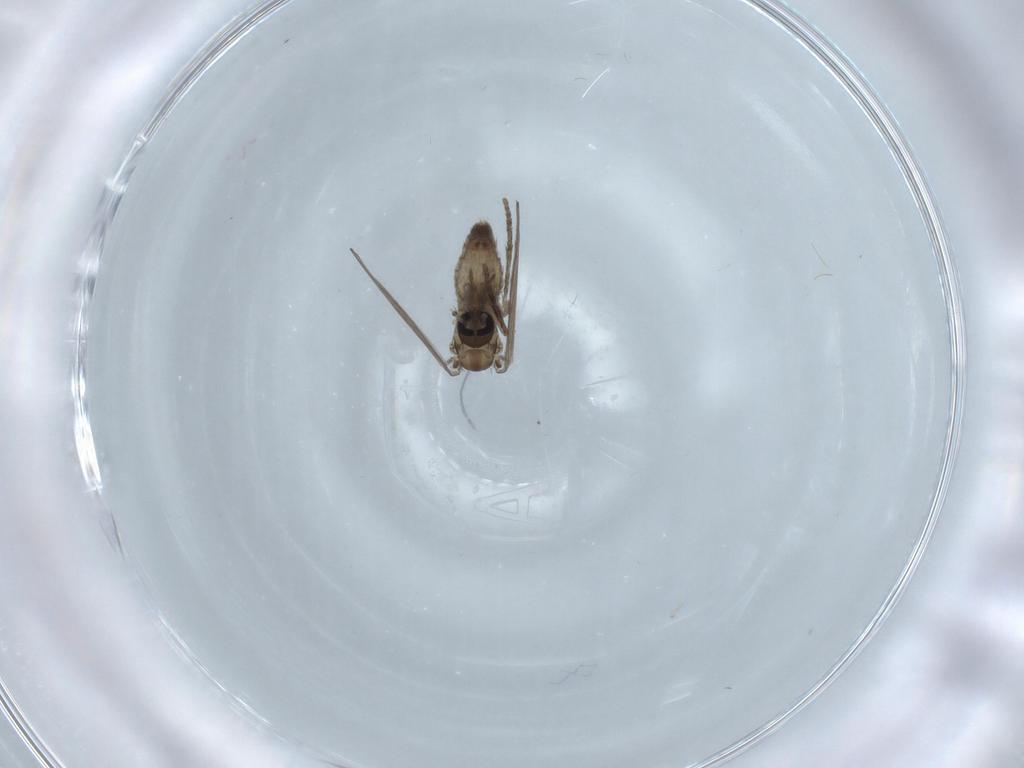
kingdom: Animalia
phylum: Arthropoda
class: Insecta
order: Diptera
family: Psychodidae
